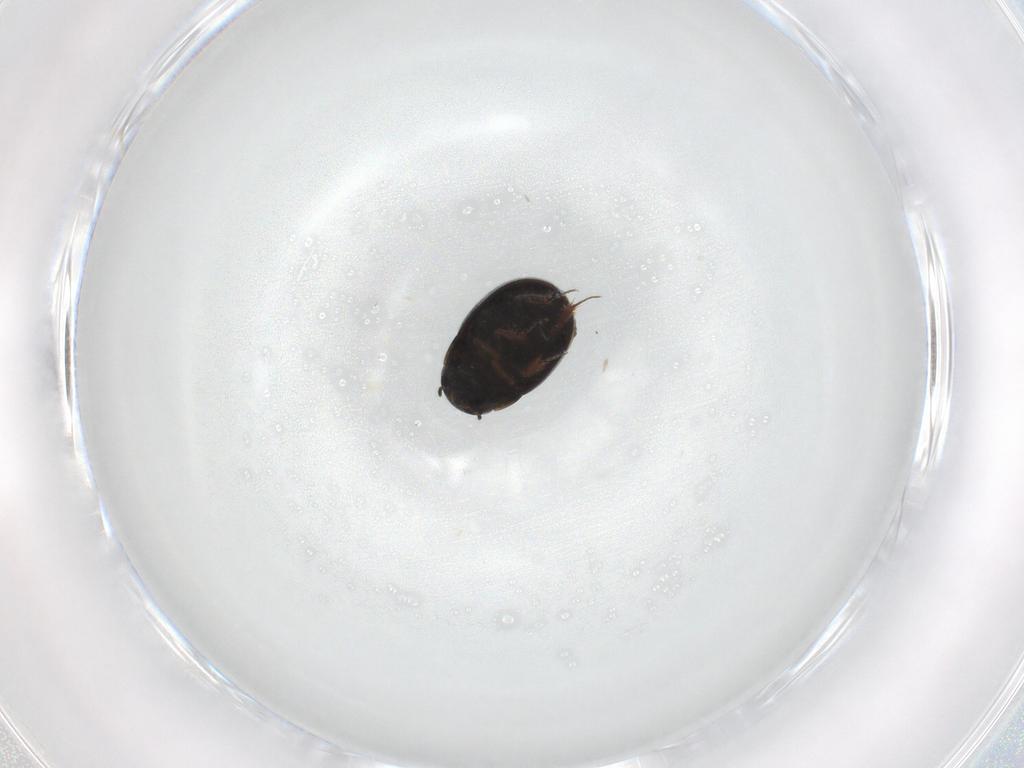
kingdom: Animalia
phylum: Arthropoda
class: Insecta
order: Coleoptera
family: Hydrophilidae
